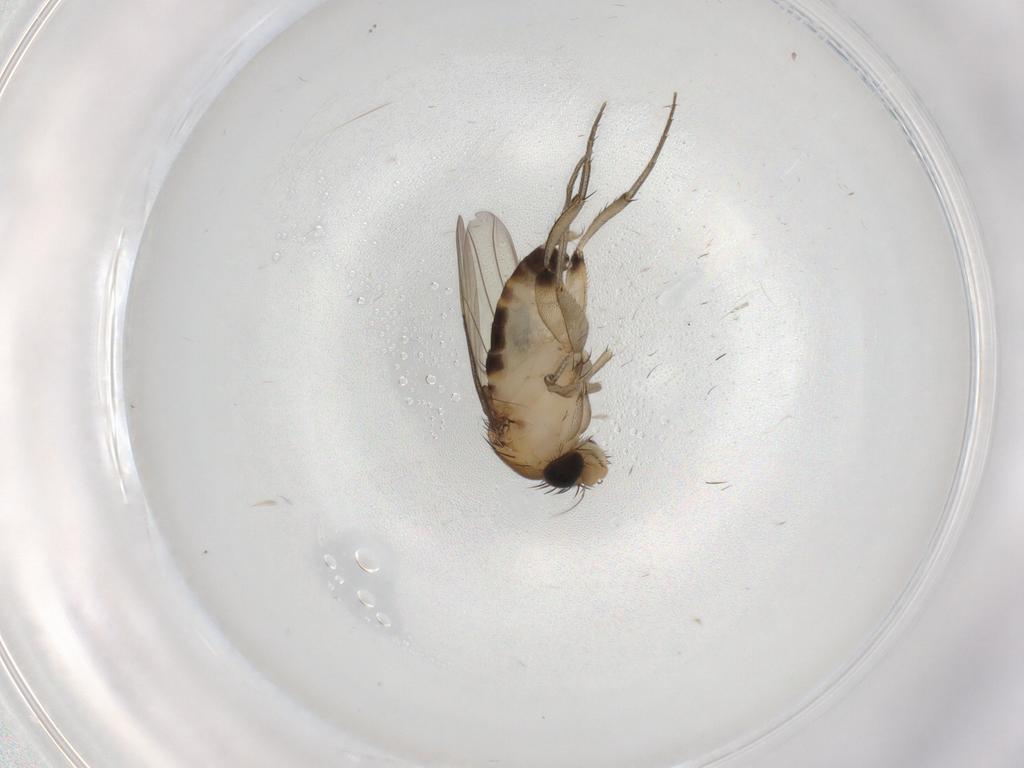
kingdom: Animalia
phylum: Arthropoda
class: Insecta
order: Diptera
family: Phoridae
